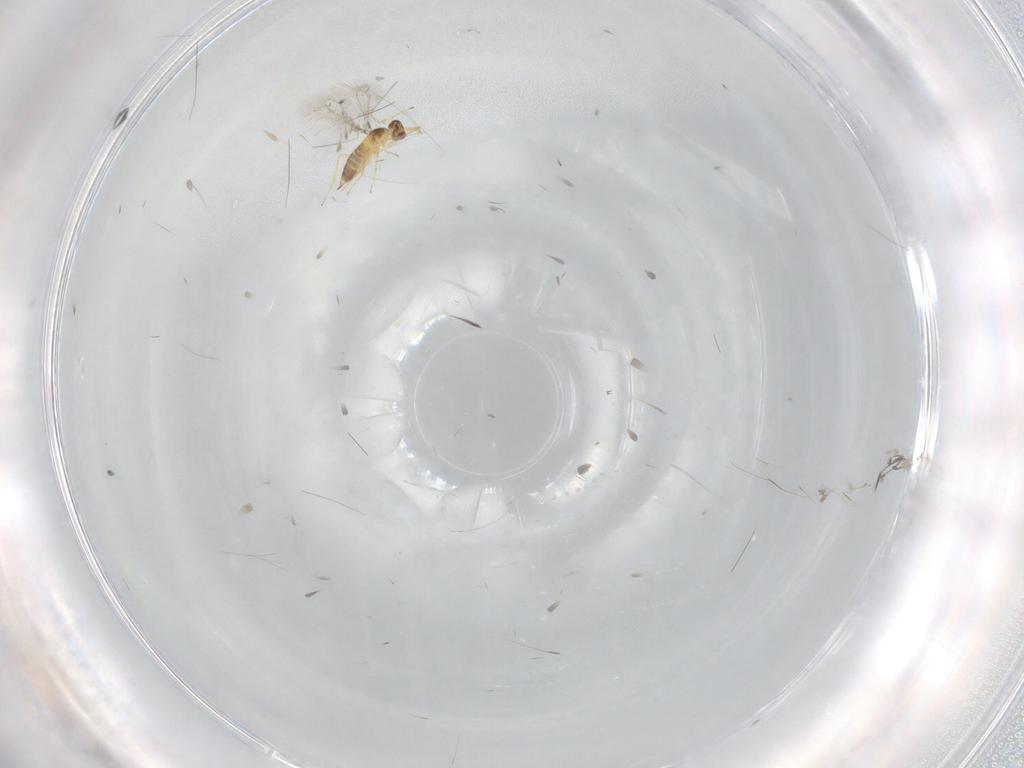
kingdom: Animalia
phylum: Arthropoda
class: Insecta
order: Hymenoptera
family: Mymaridae
